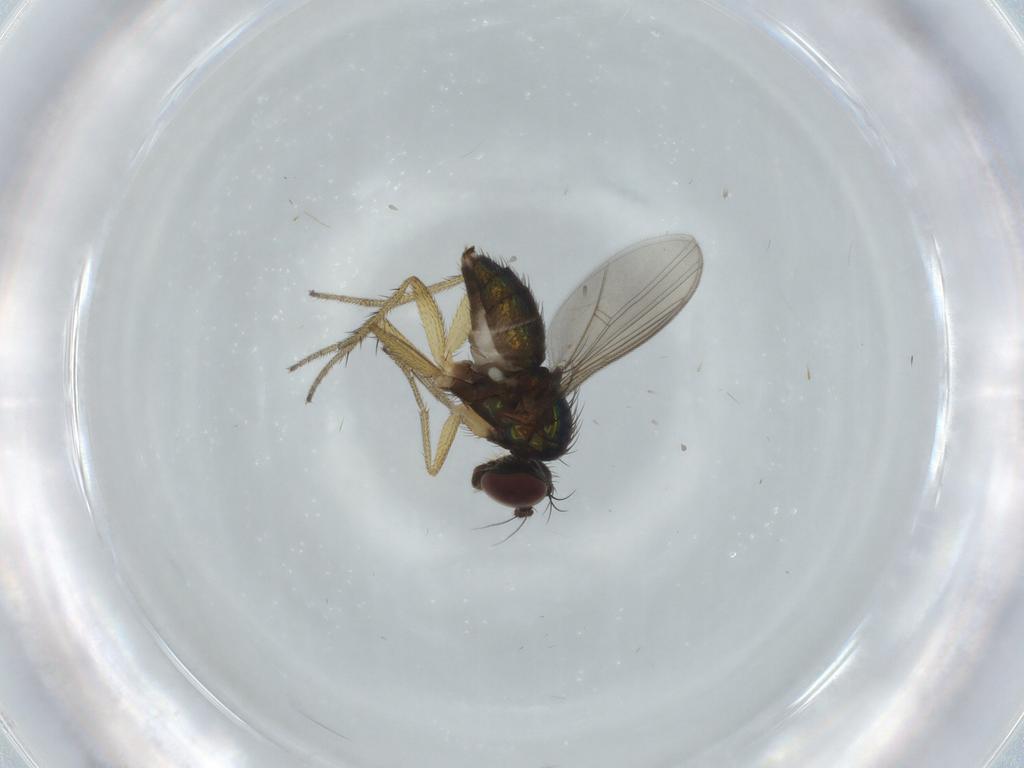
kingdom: Animalia
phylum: Arthropoda
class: Insecta
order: Diptera
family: Dolichopodidae
